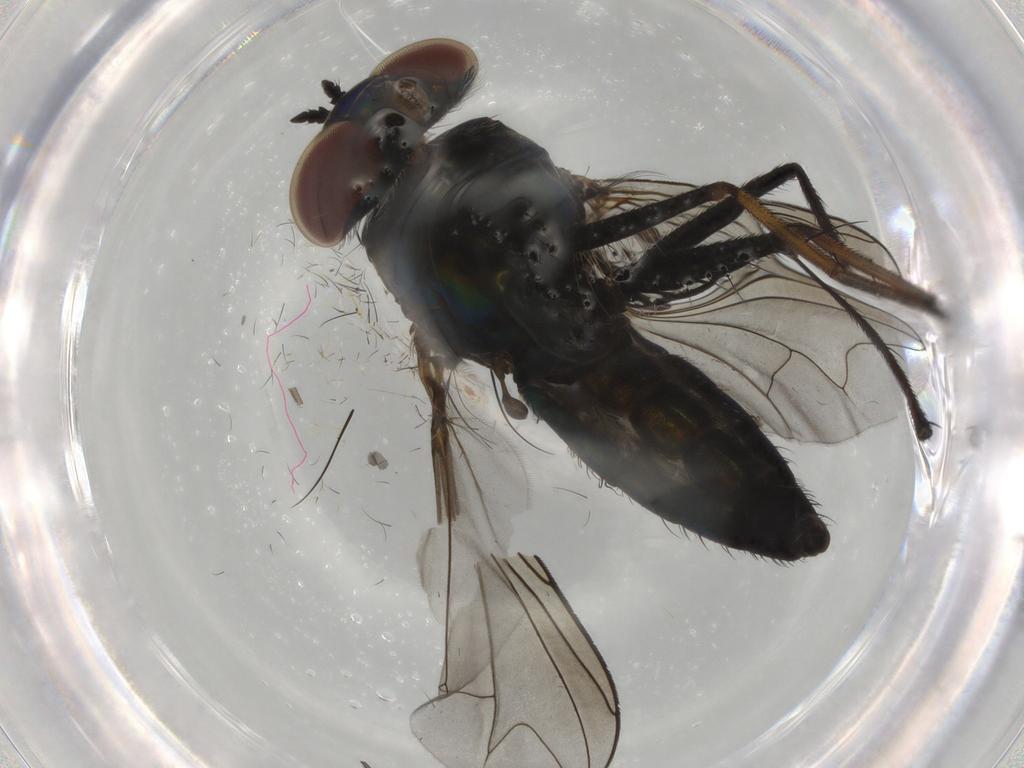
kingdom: Animalia
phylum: Arthropoda
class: Insecta
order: Diptera
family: Dolichopodidae
